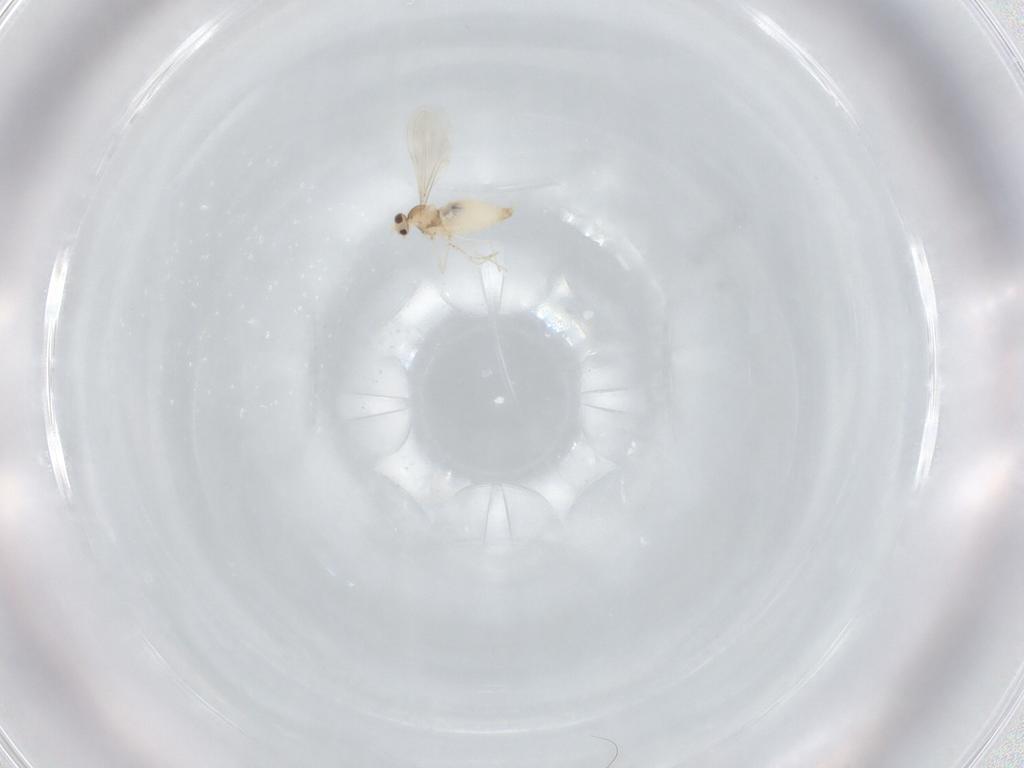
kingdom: Animalia
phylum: Arthropoda
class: Insecta
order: Diptera
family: Cecidomyiidae
